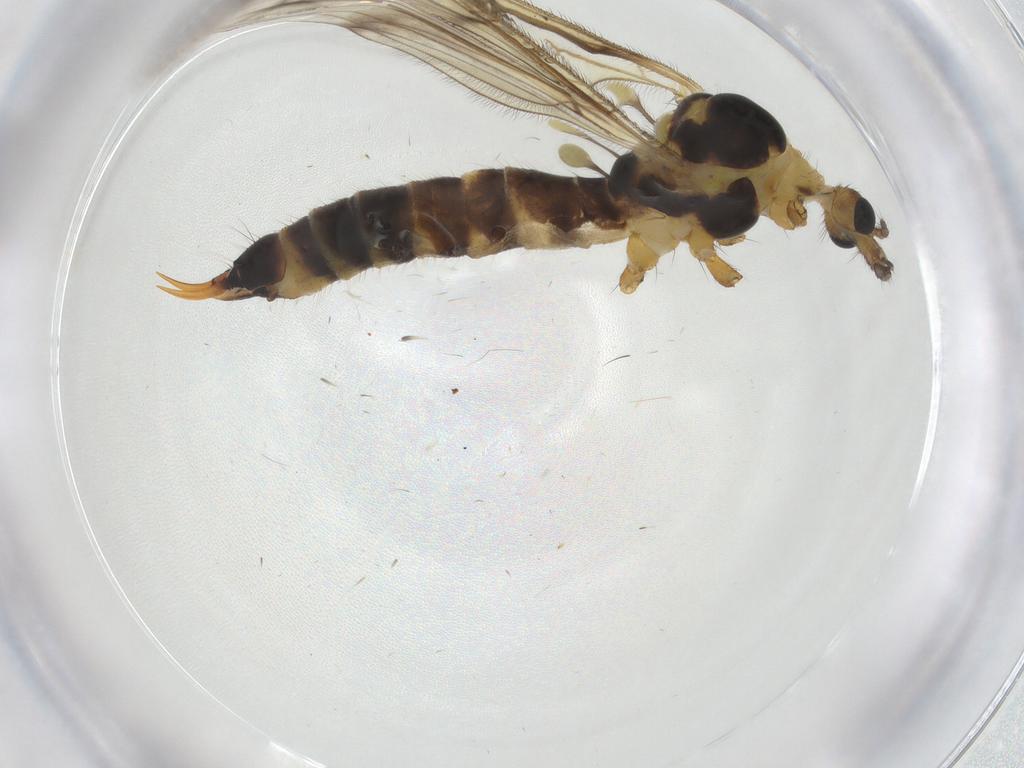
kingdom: Animalia
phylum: Arthropoda
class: Insecta
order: Diptera
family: Limoniidae
